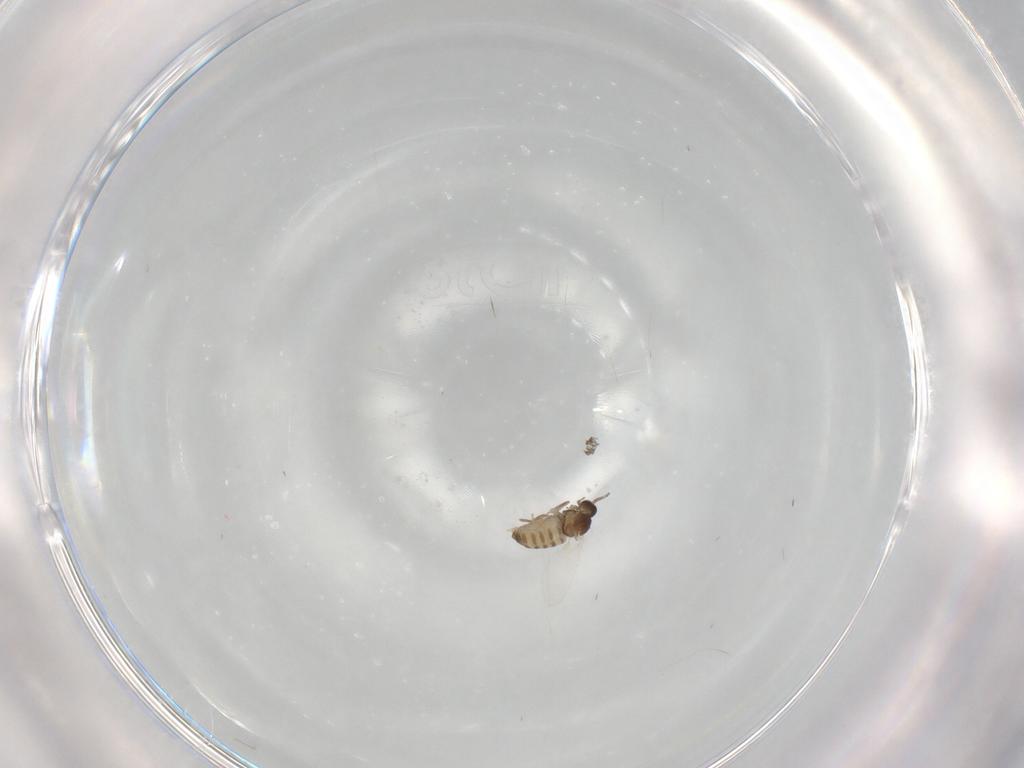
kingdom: Animalia
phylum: Arthropoda
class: Insecta
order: Diptera
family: Cecidomyiidae
